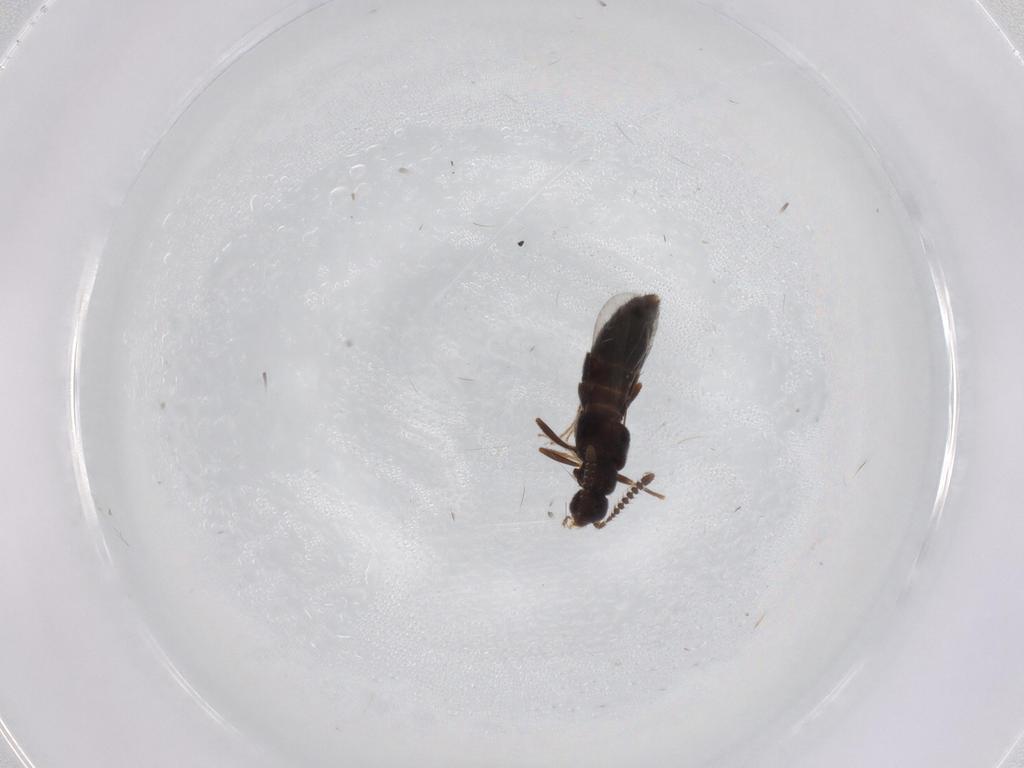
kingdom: Animalia
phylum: Arthropoda
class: Insecta
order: Coleoptera
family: Staphylinidae
